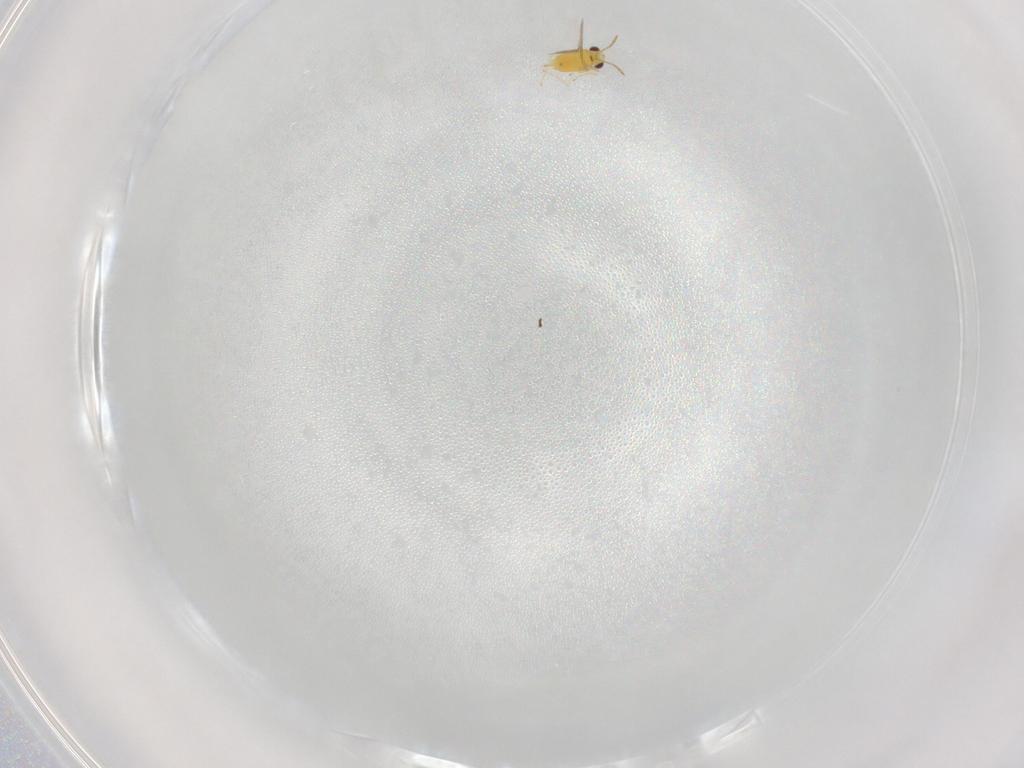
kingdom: Animalia
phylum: Arthropoda
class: Insecta
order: Hymenoptera
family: Aphelinidae
